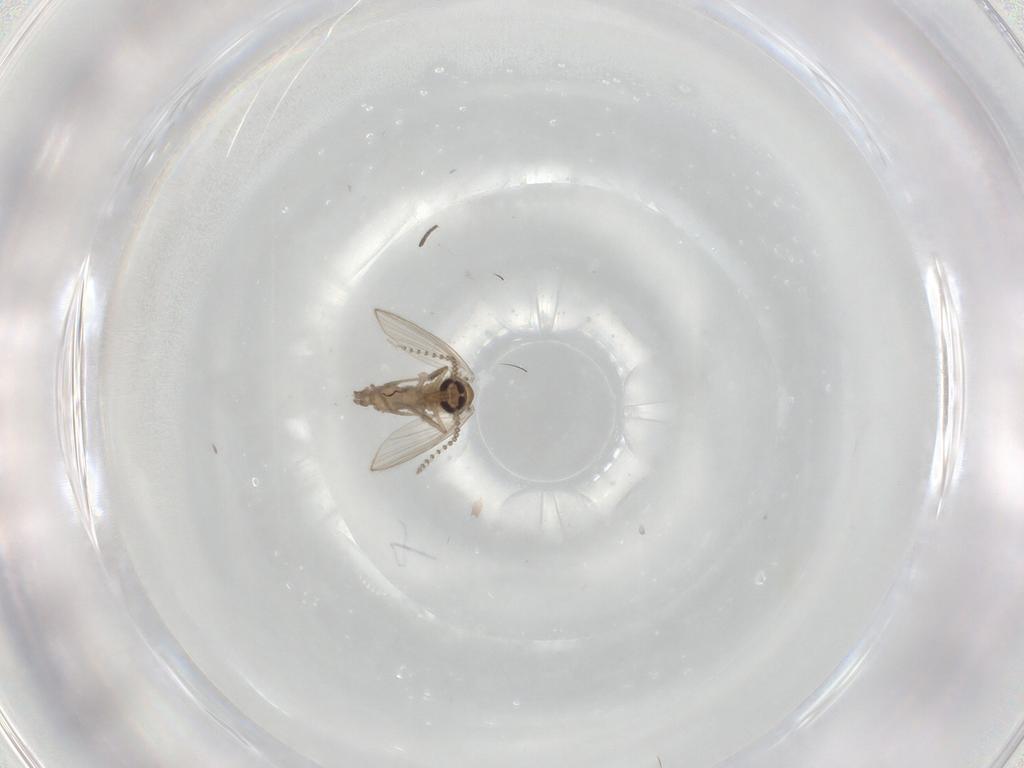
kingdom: Animalia
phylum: Arthropoda
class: Insecta
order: Diptera
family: Psychodidae
